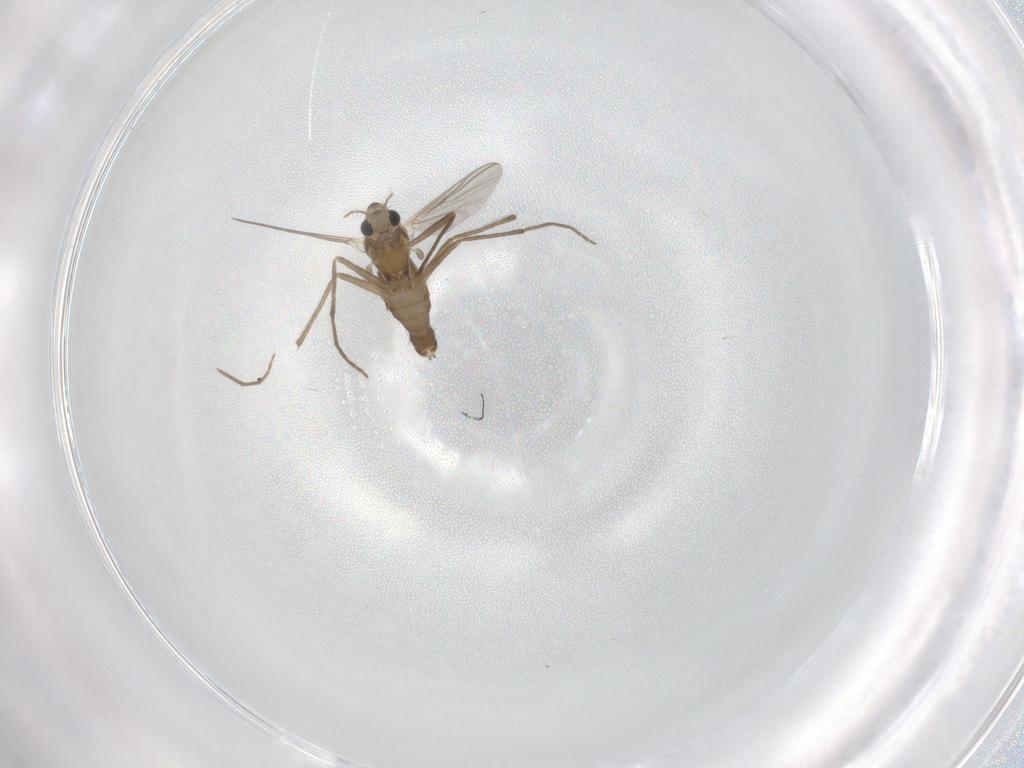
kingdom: Animalia
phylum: Arthropoda
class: Insecta
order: Diptera
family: Chironomidae
